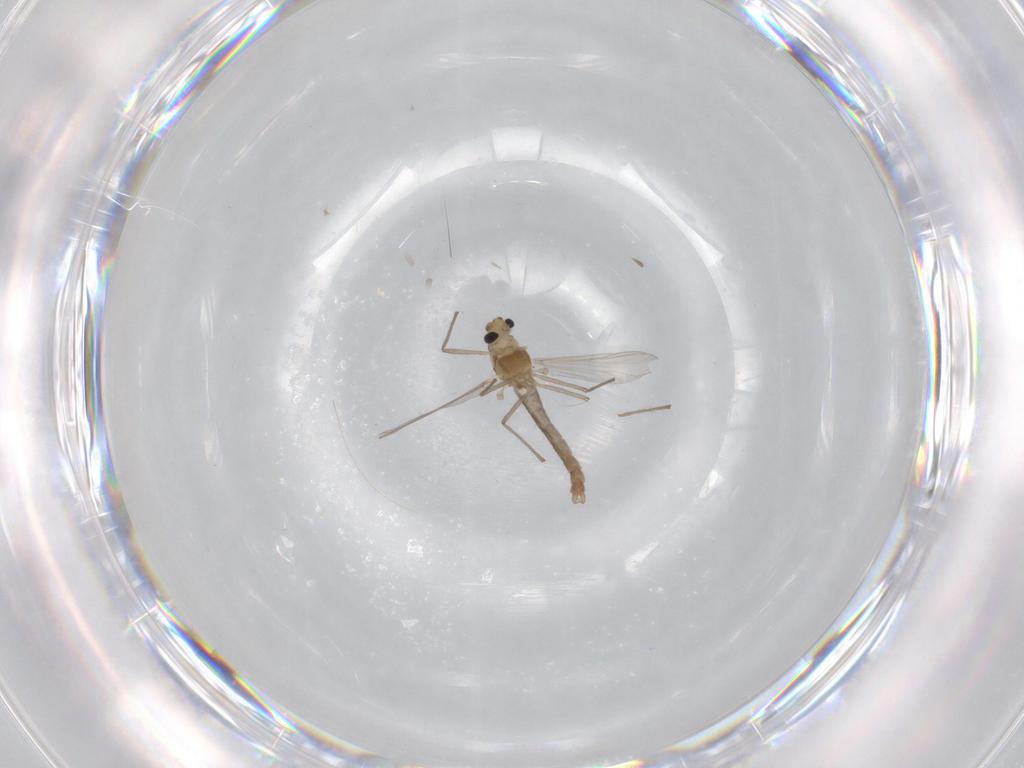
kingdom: Animalia
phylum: Arthropoda
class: Insecta
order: Diptera
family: Chironomidae
